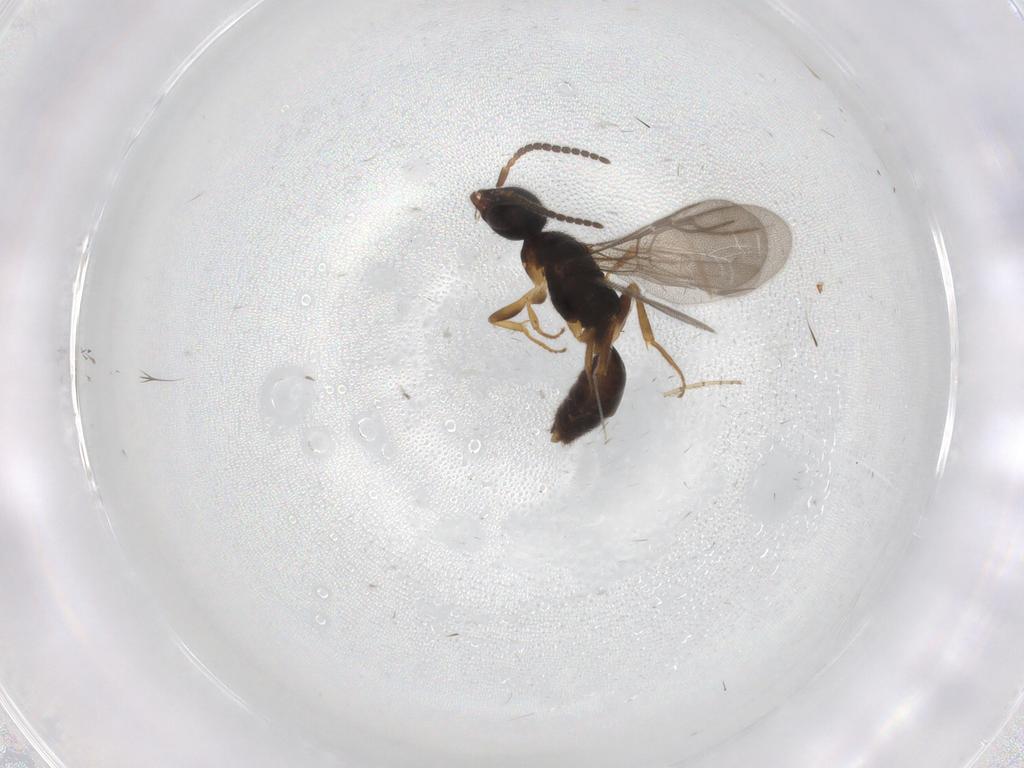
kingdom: Animalia
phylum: Arthropoda
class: Insecta
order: Hymenoptera
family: Bethylidae
